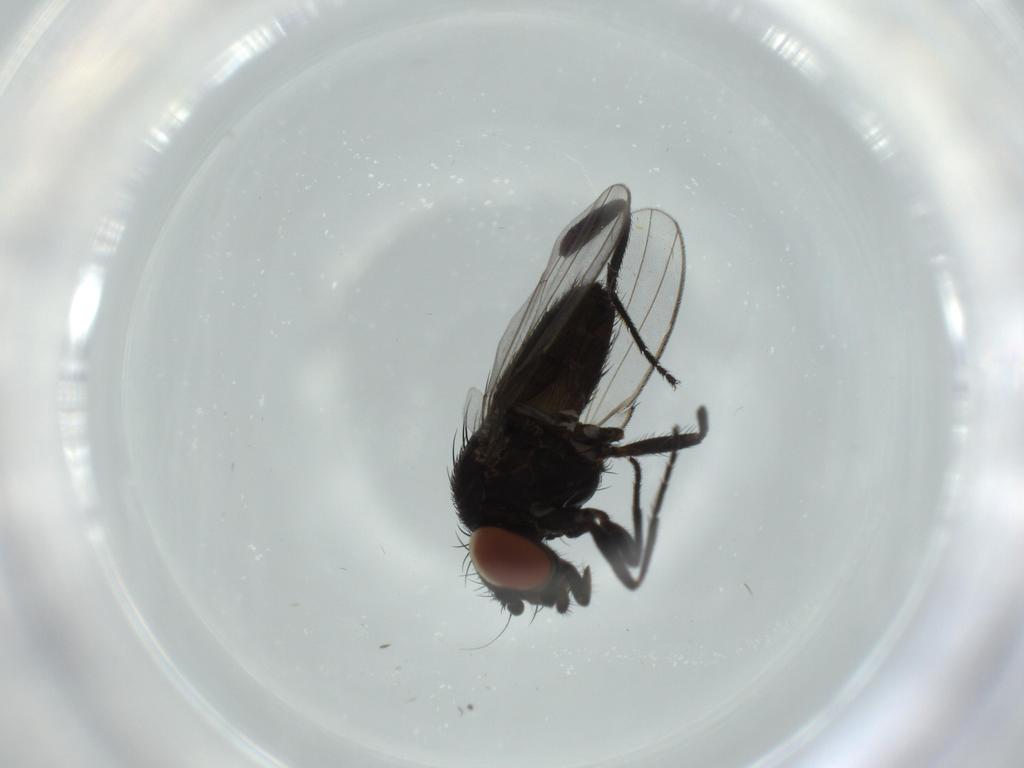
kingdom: Animalia
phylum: Arthropoda
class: Insecta
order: Diptera
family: Milichiidae
